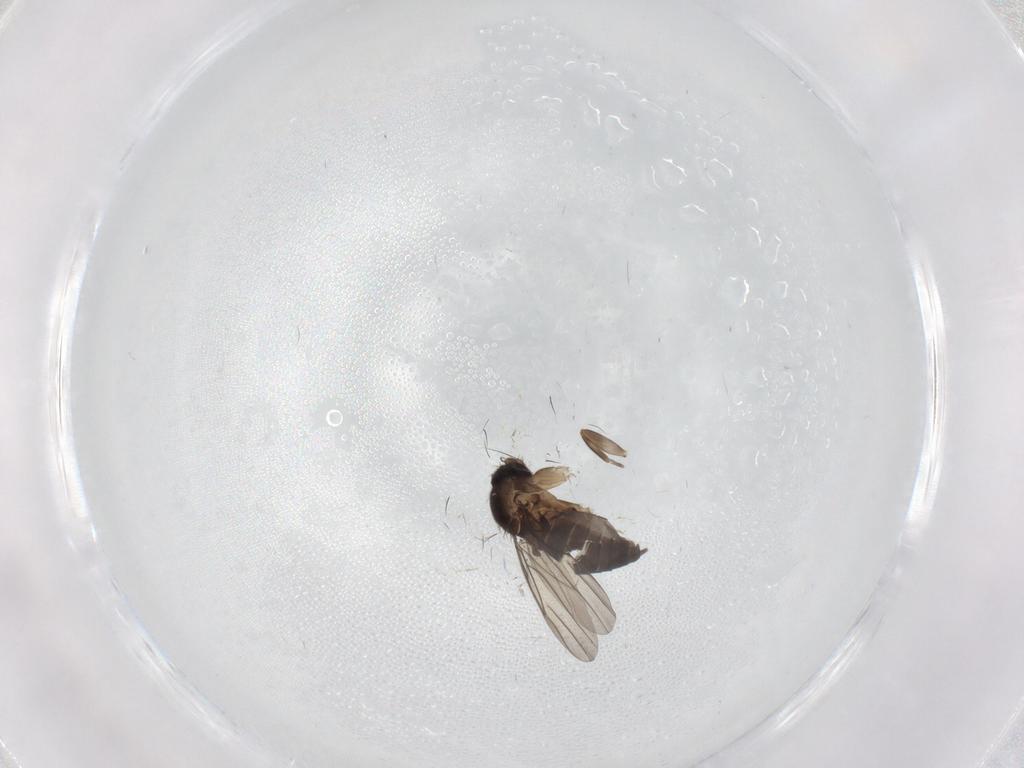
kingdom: Animalia
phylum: Arthropoda
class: Insecta
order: Diptera
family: Phoridae
